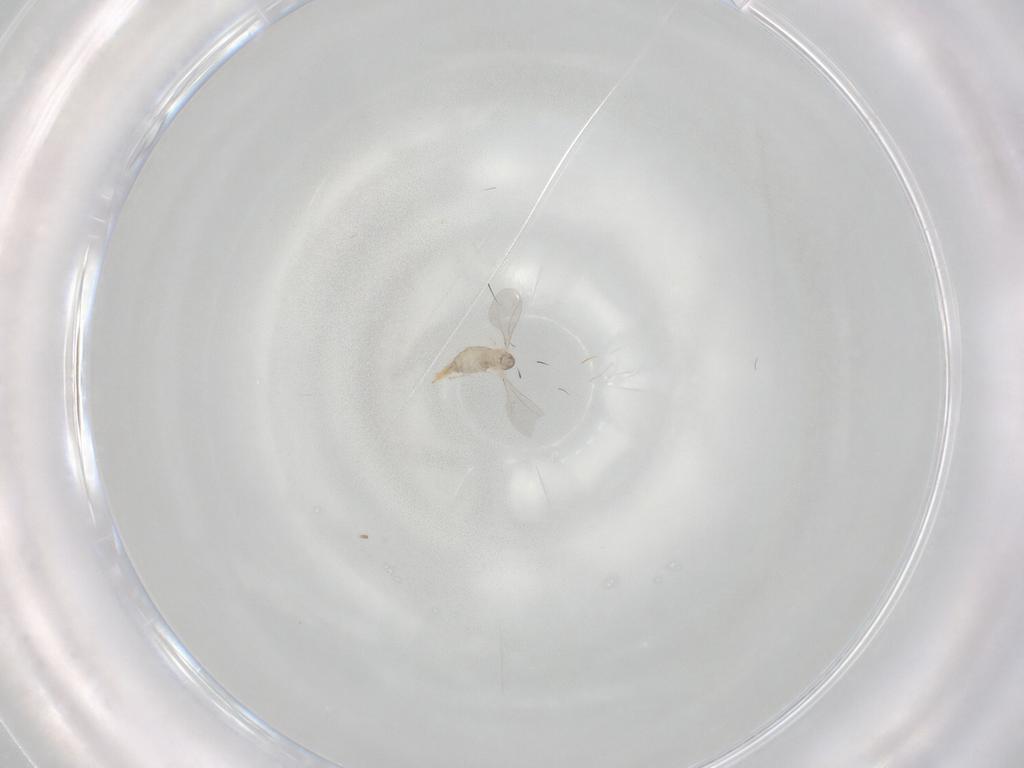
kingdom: Animalia
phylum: Arthropoda
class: Insecta
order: Diptera
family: Cecidomyiidae
